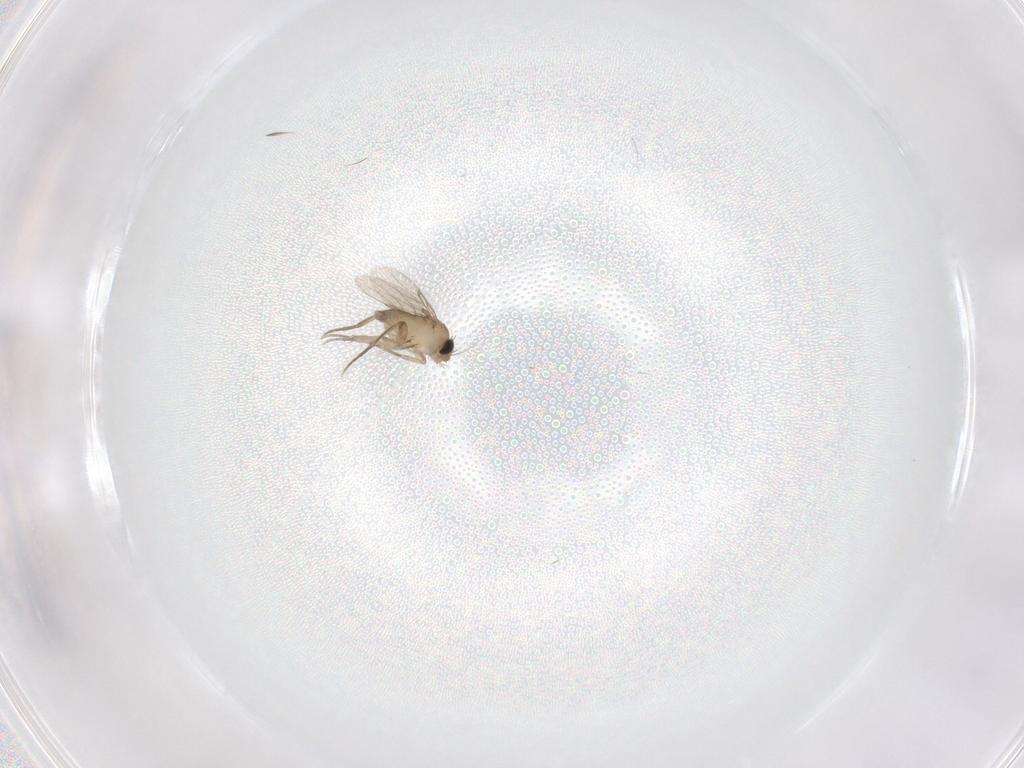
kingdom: Animalia
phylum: Arthropoda
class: Insecta
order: Diptera
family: Phoridae
